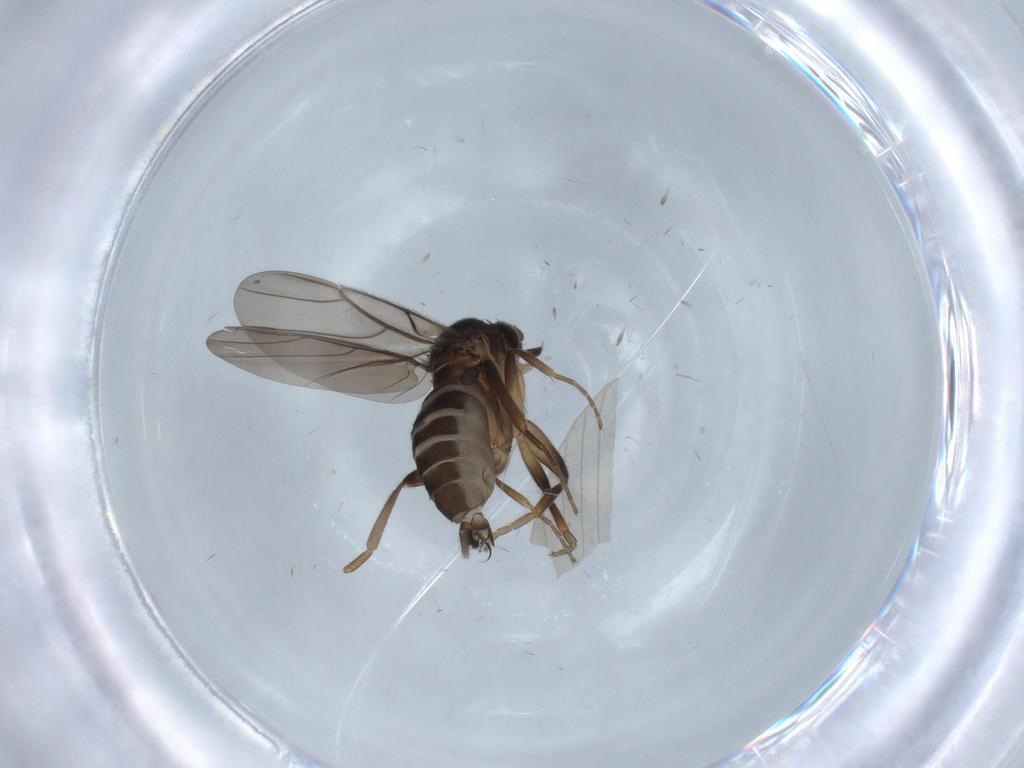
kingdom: Animalia
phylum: Arthropoda
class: Insecta
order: Diptera
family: Phoridae
